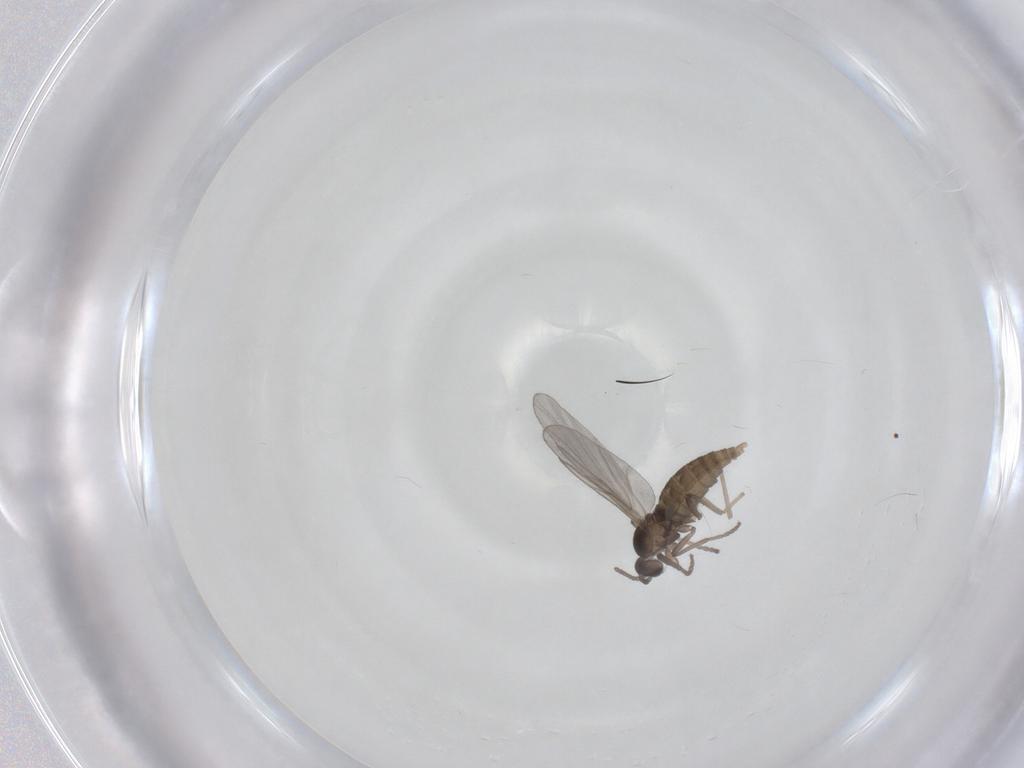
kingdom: Animalia
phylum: Arthropoda
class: Insecta
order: Diptera
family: Cecidomyiidae
